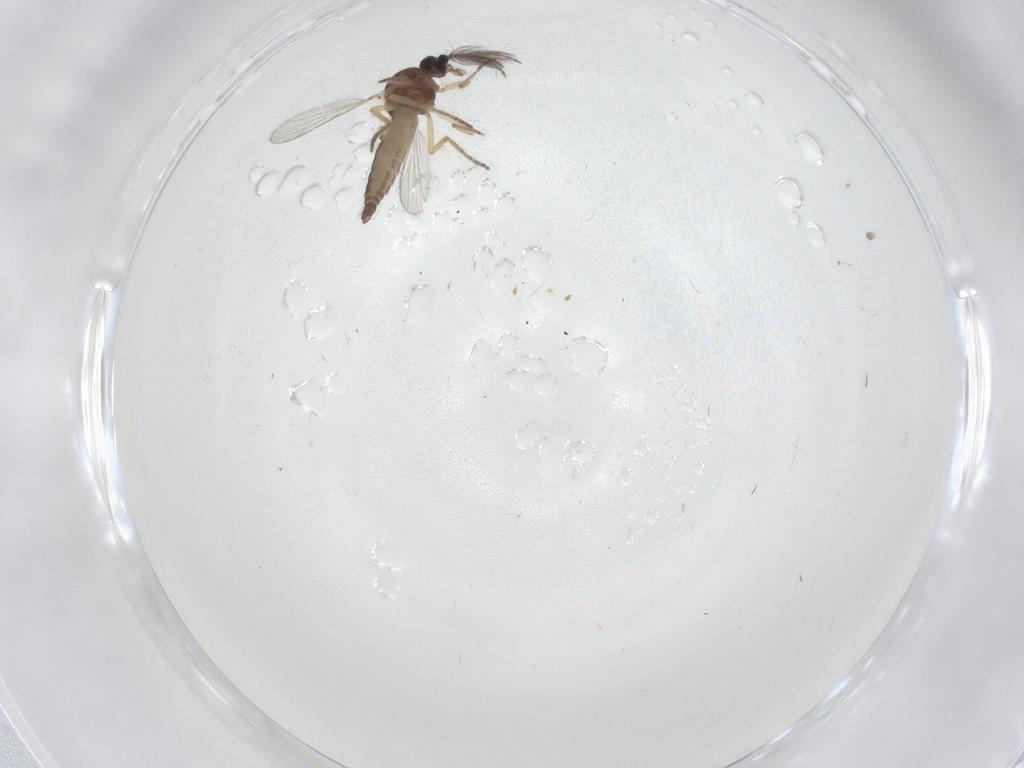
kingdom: Animalia
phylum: Arthropoda
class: Insecta
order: Diptera
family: Ceratopogonidae
